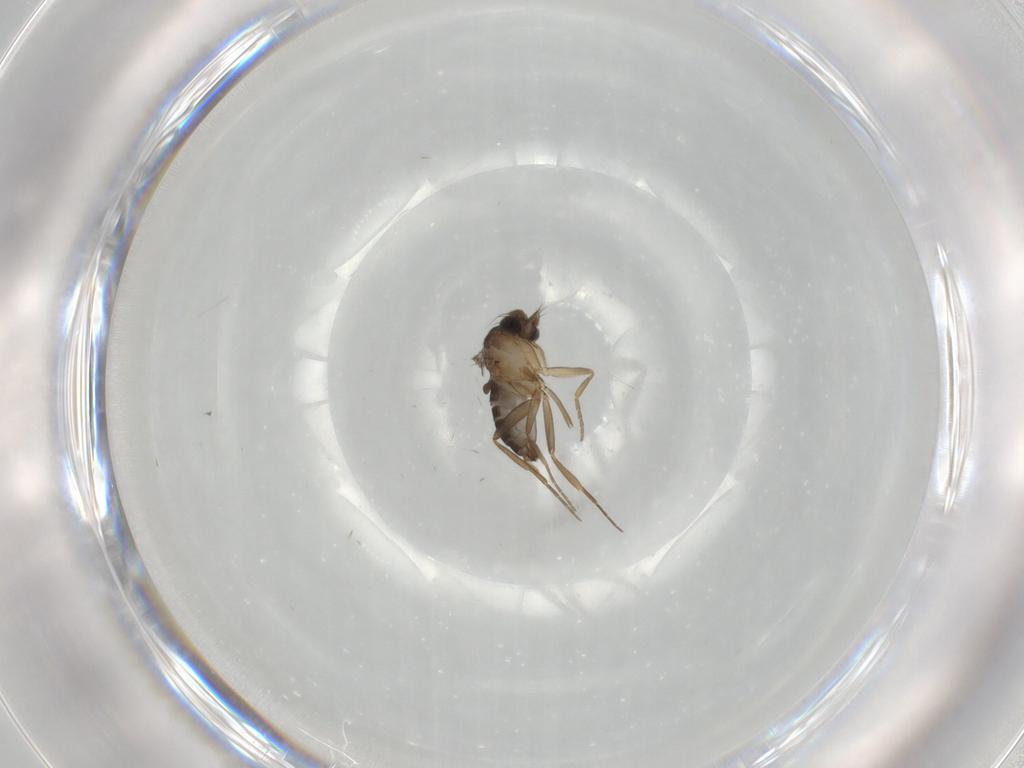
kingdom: Animalia
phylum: Arthropoda
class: Insecta
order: Diptera
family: Phoridae
